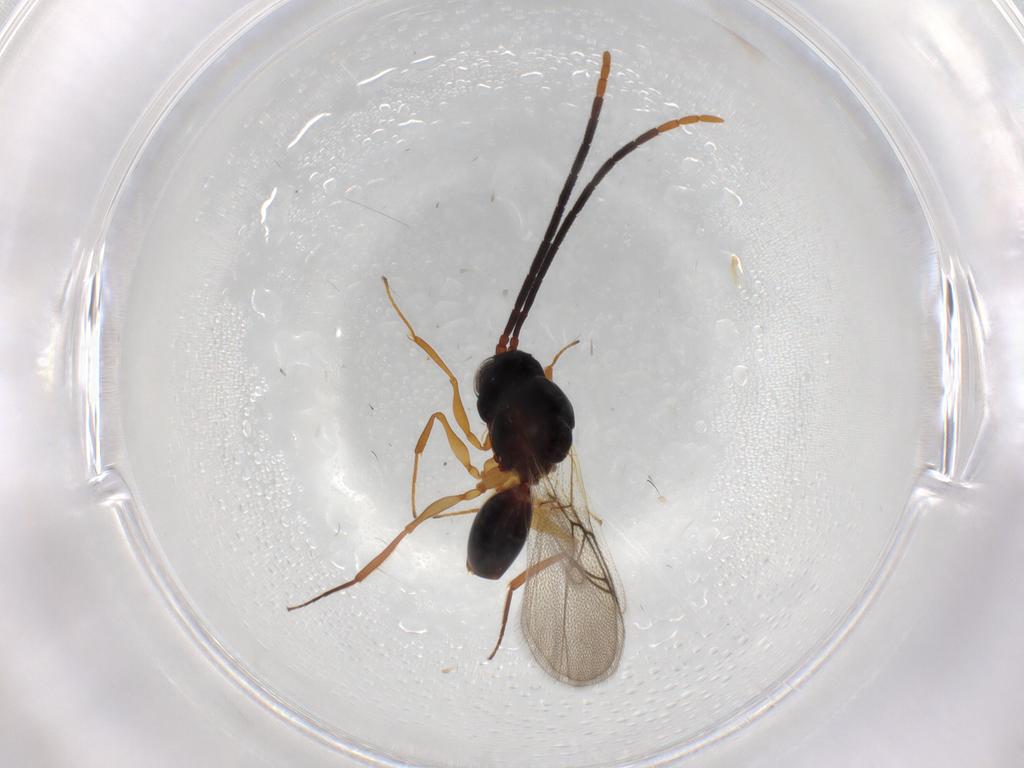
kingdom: Animalia
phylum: Arthropoda
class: Insecta
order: Hymenoptera
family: Figitidae
